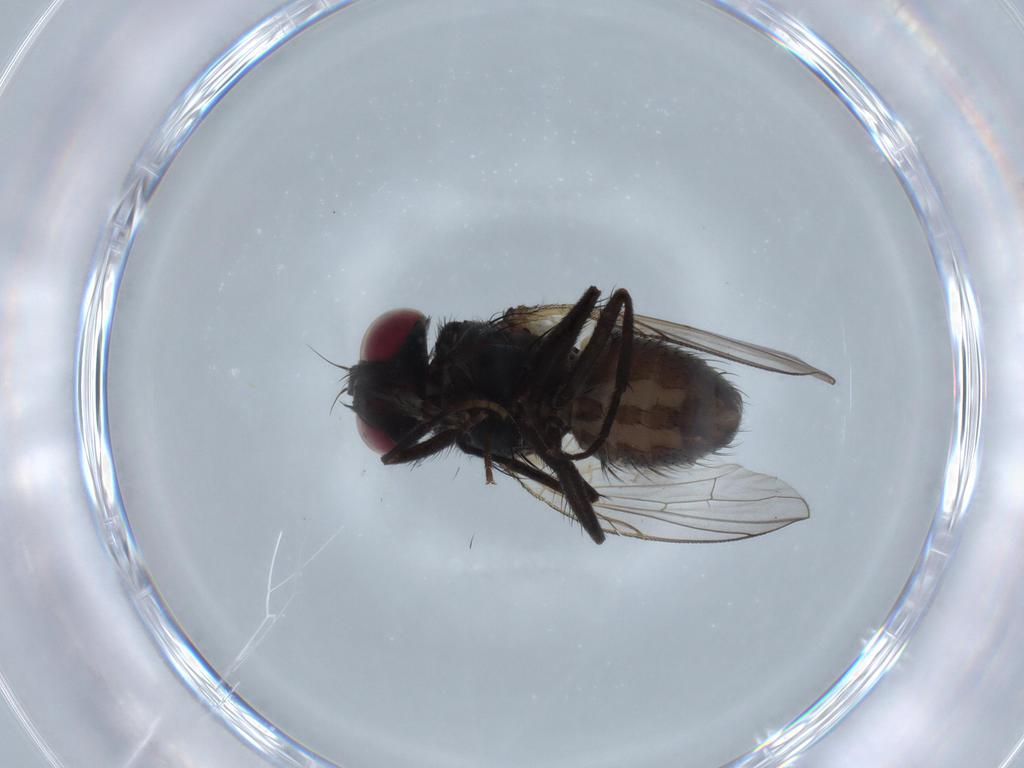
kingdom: Animalia
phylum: Arthropoda
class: Insecta
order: Diptera
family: Muscidae
